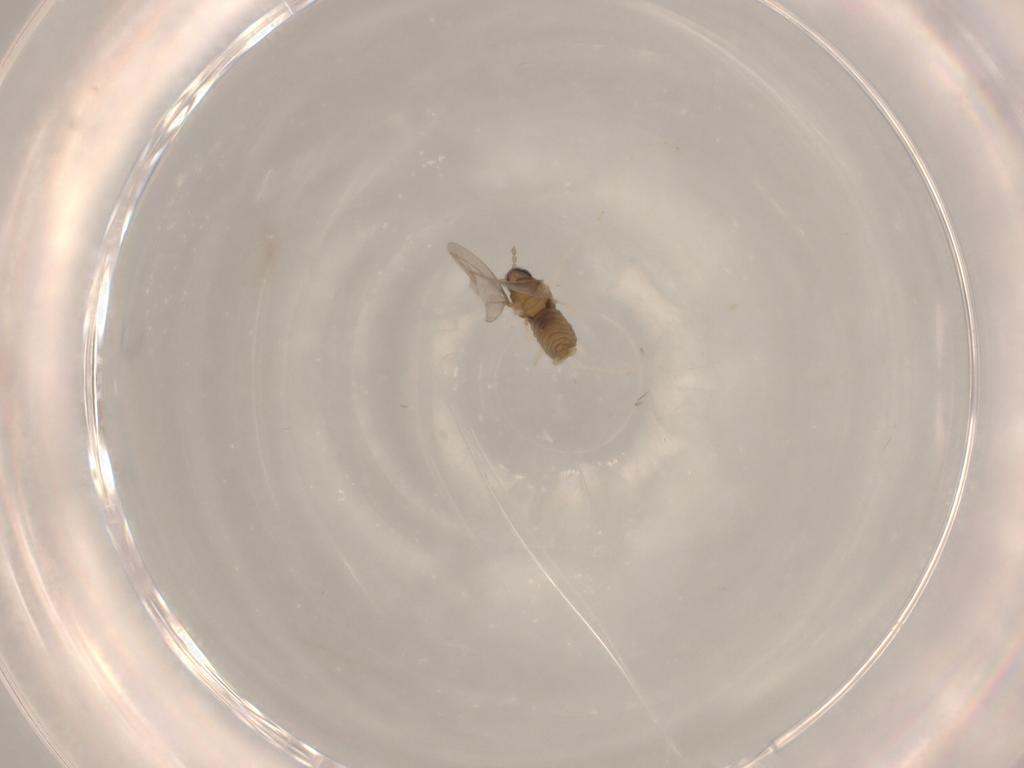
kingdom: Animalia
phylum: Arthropoda
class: Insecta
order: Diptera
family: Cecidomyiidae
